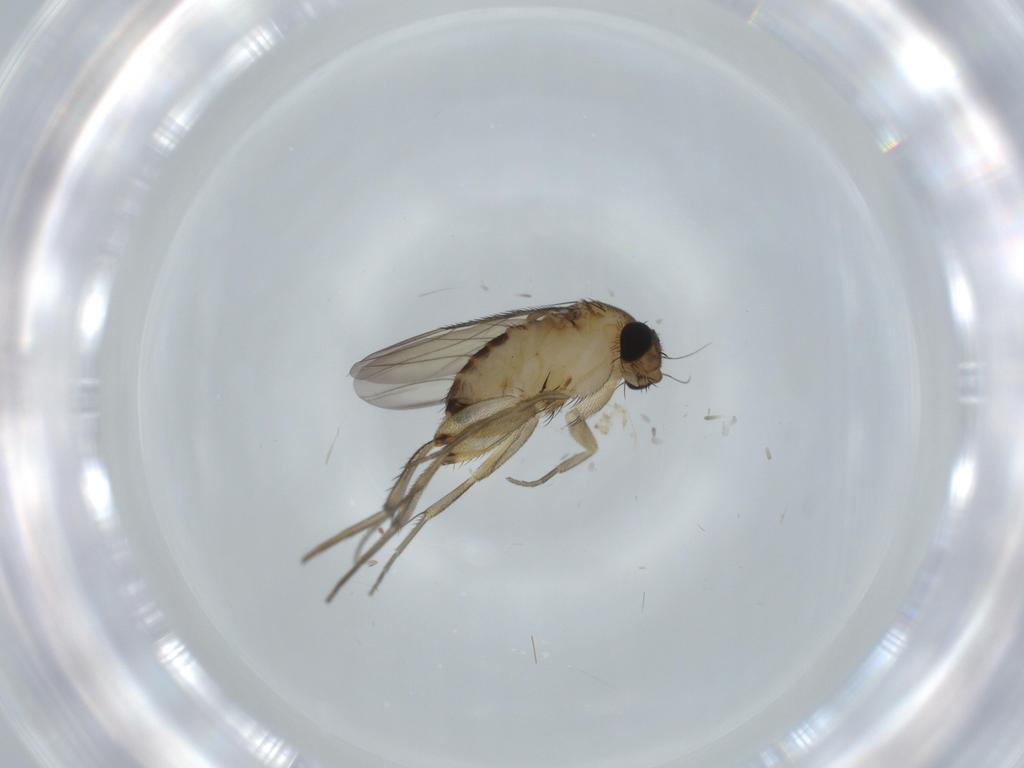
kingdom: Animalia
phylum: Arthropoda
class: Insecta
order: Diptera
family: Phoridae
